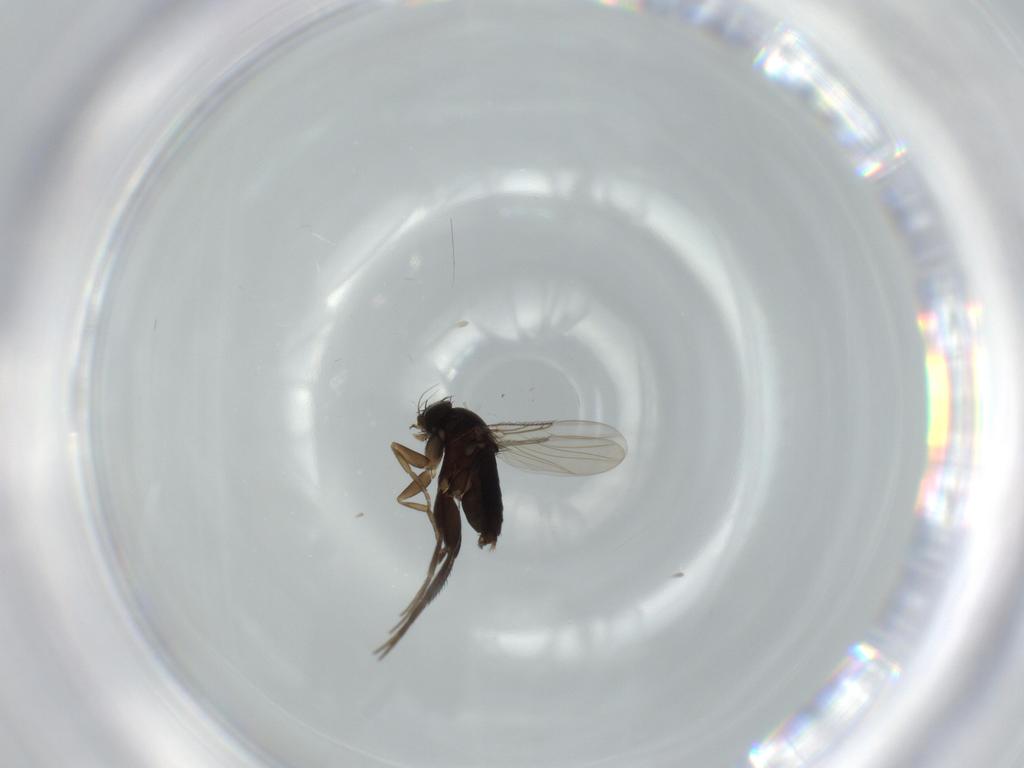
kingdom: Animalia
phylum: Arthropoda
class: Insecta
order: Diptera
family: Phoridae
